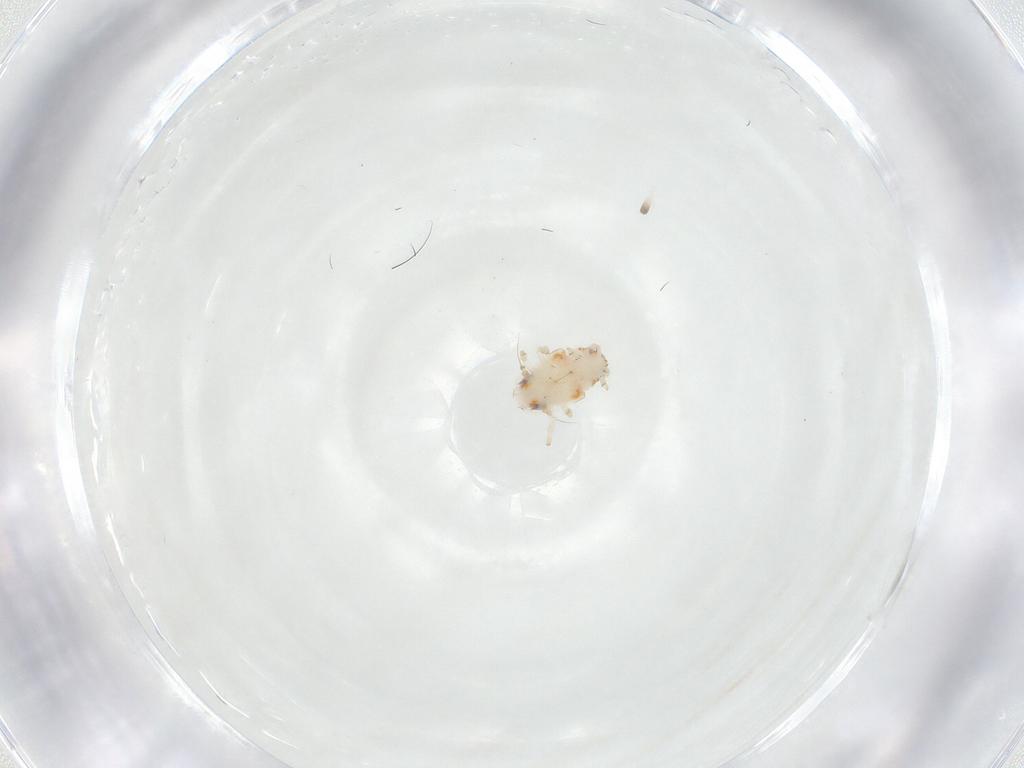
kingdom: Animalia
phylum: Arthropoda
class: Insecta
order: Hemiptera
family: Nogodinidae
